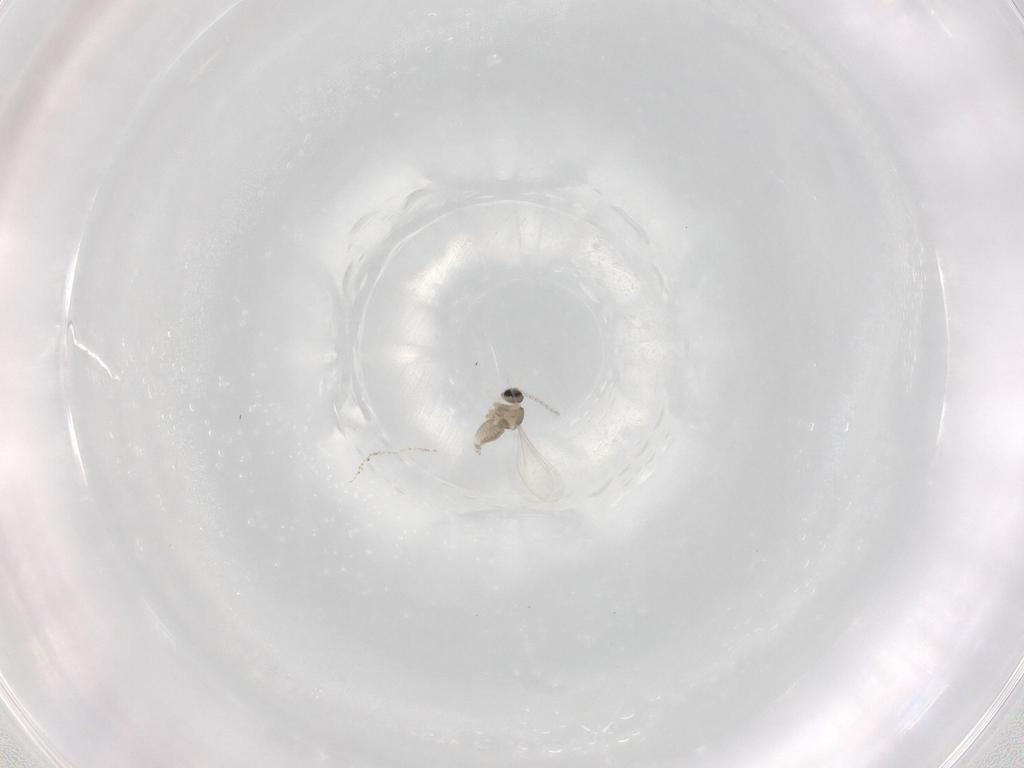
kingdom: Animalia
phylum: Arthropoda
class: Insecta
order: Diptera
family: Cecidomyiidae
